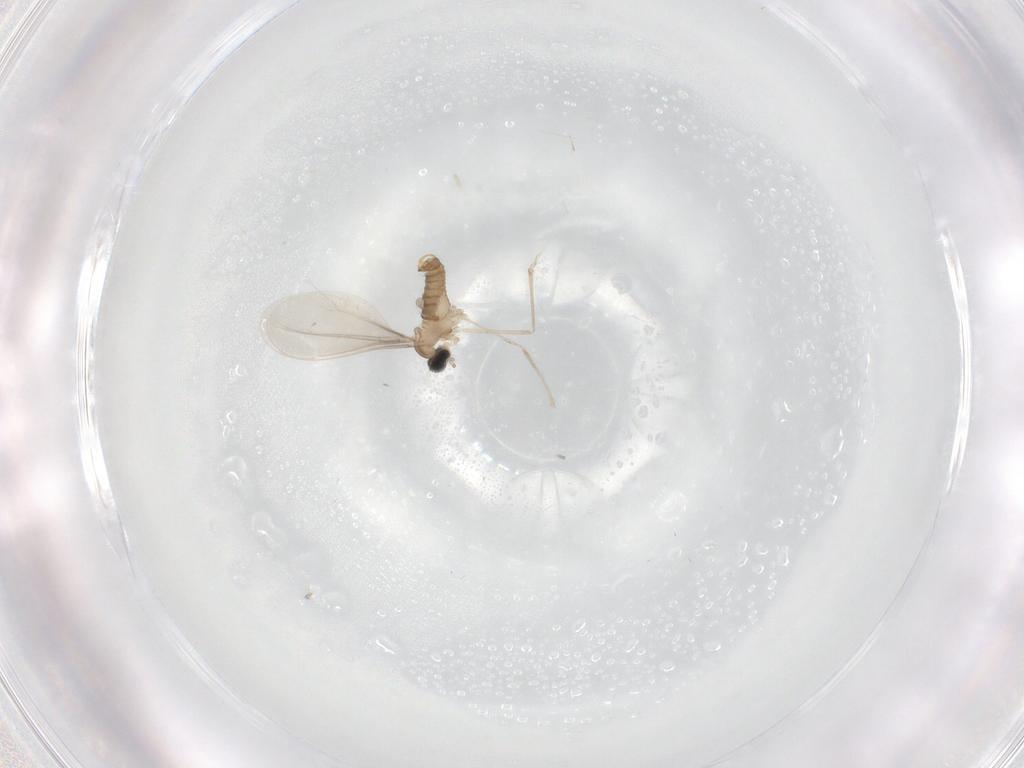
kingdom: Animalia
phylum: Arthropoda
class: Insecta
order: Diptera
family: Cecidomyiidae
